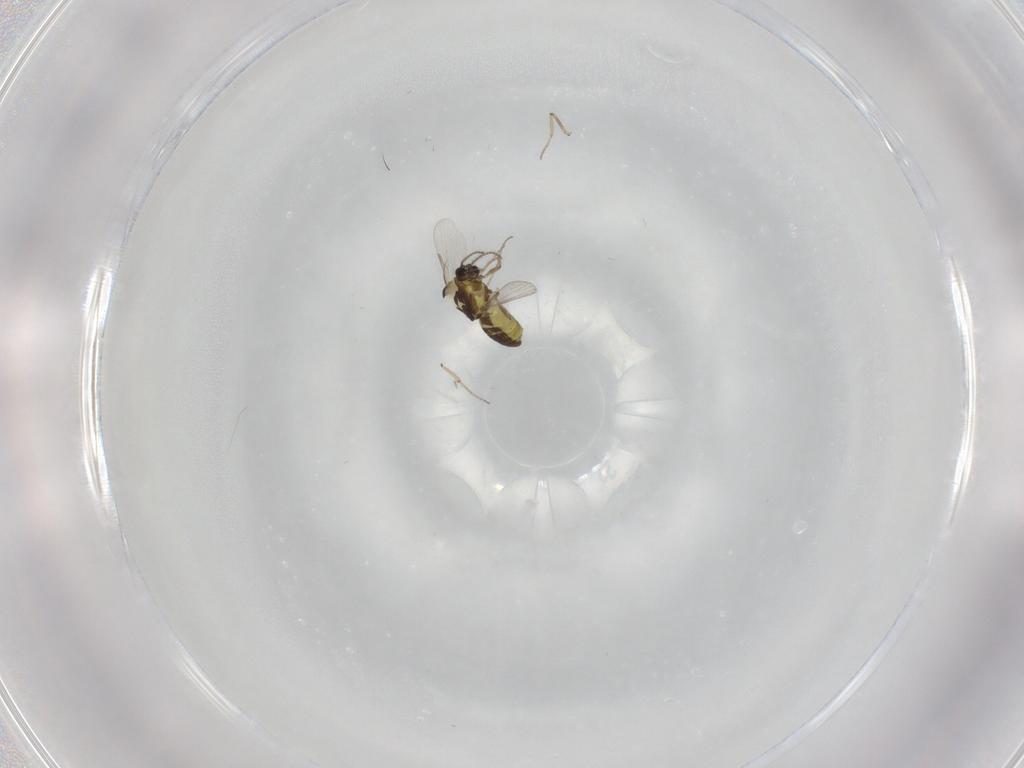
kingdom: Animalia
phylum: Arthropoda
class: Insecta
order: Diptera
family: Ceratopogonidae
